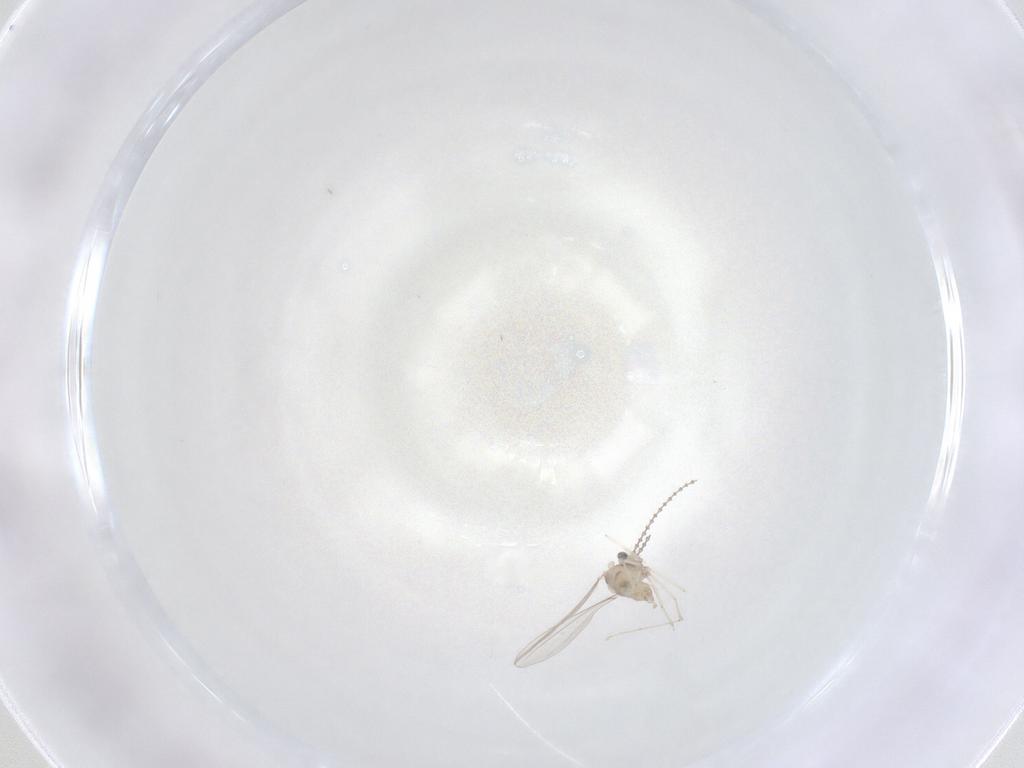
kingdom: Animalia
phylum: Arthropoda
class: Insecta
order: Diptera
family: Cecidomyiidae
